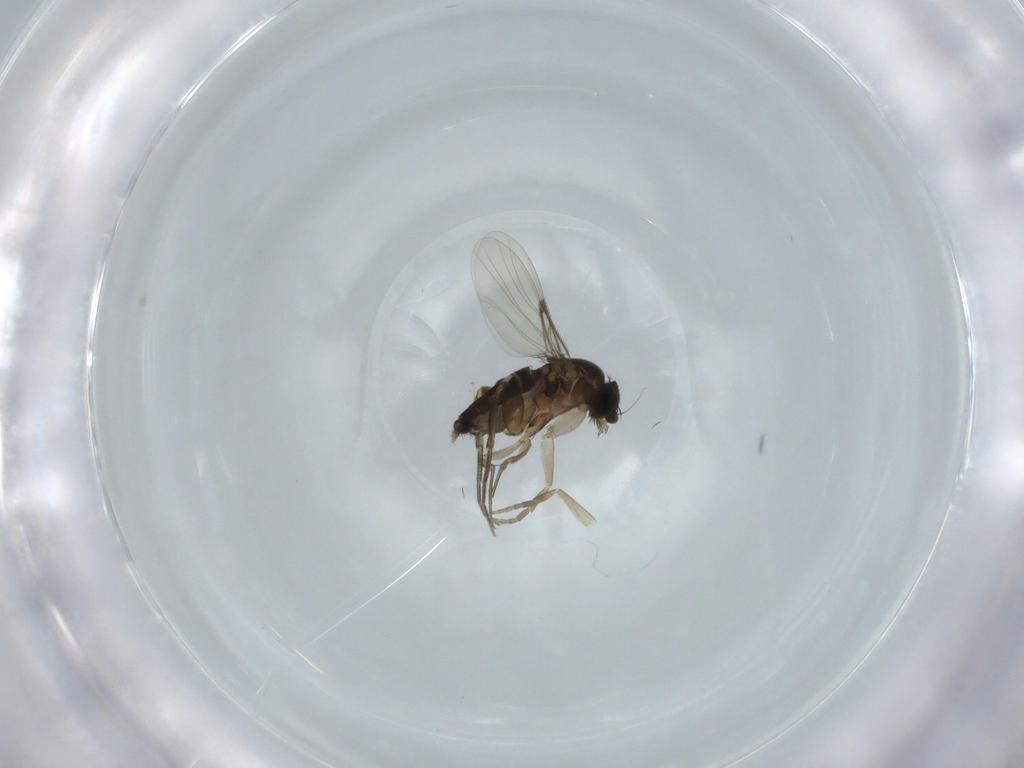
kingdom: Animalia
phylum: Arthropoda
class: Insecta
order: Diptera
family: Phoridae
